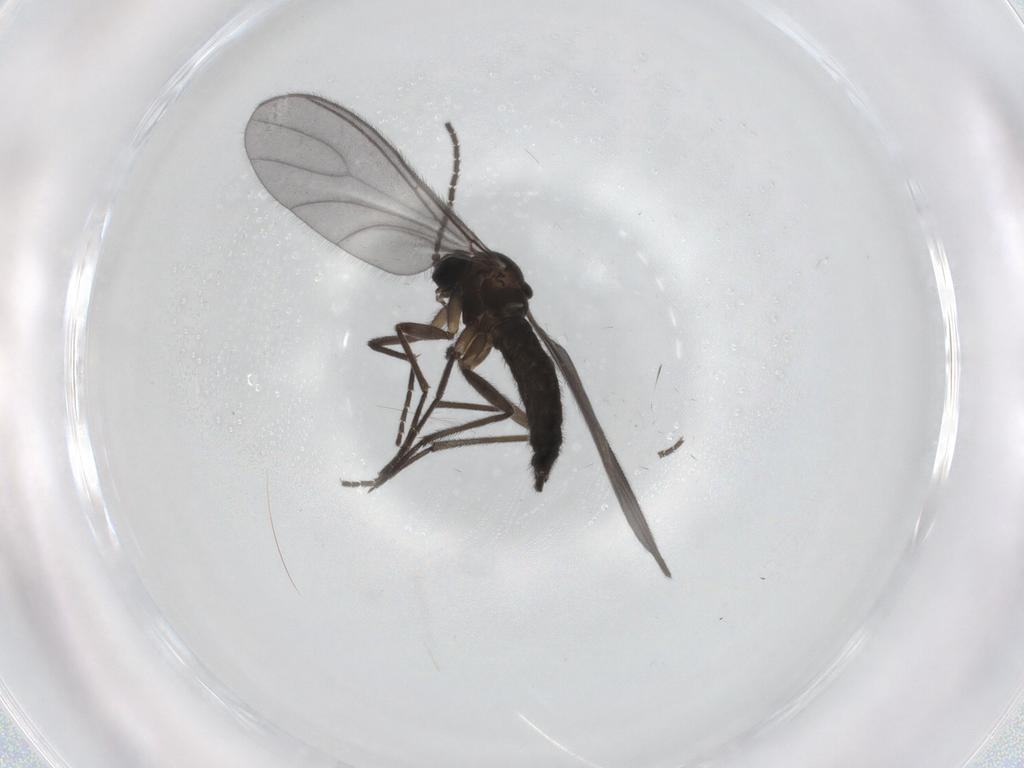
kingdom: Animalia
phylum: Arthropoda
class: Insecta
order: Diptera
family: Sciaridae
